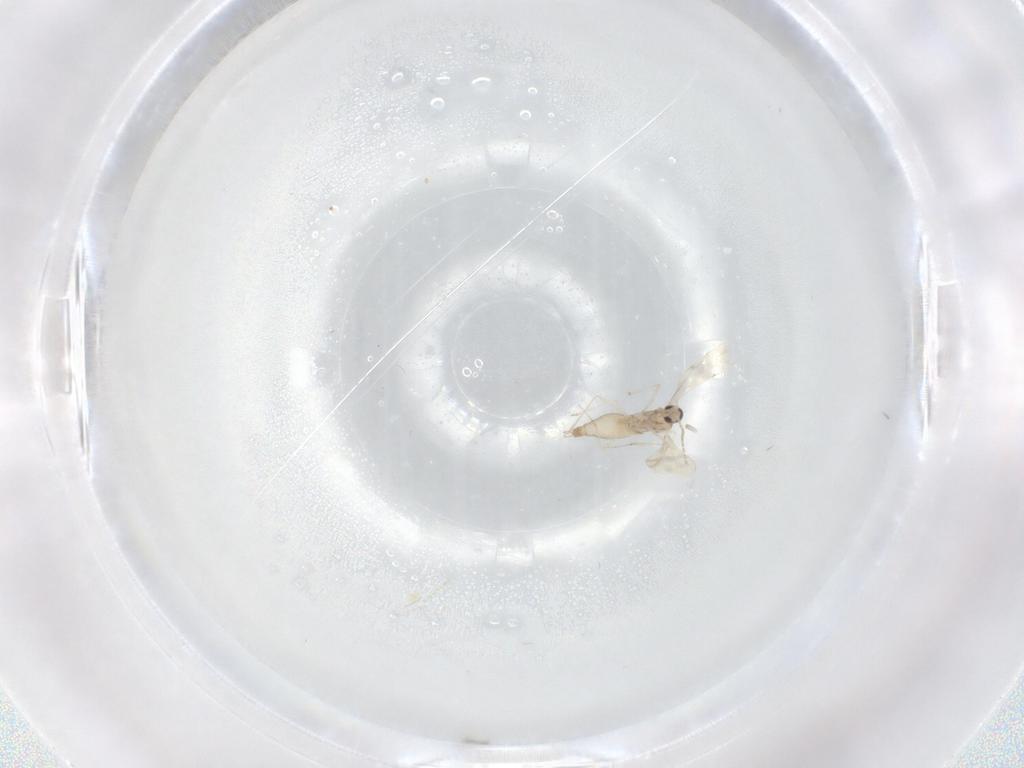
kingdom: Animalia
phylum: Arthropoda
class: Insecta
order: Diptera
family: Cecidomyiidae
